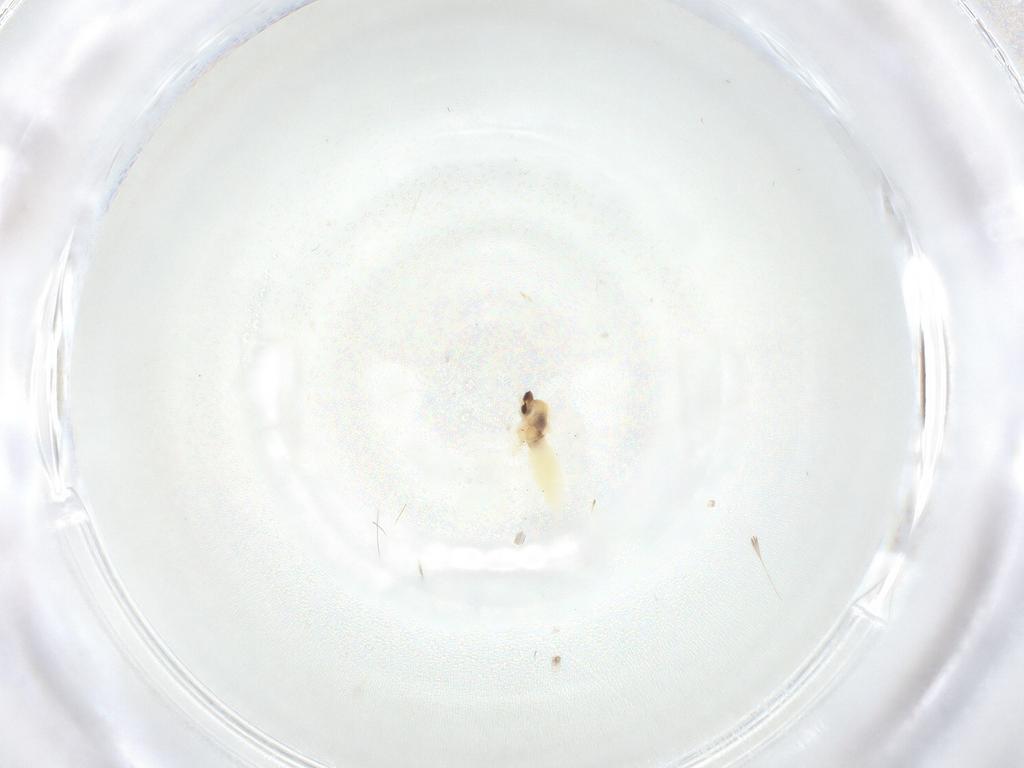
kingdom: Animalia
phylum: Arthropoda
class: Insecta
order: Diptera
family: Cecidomyiidae
